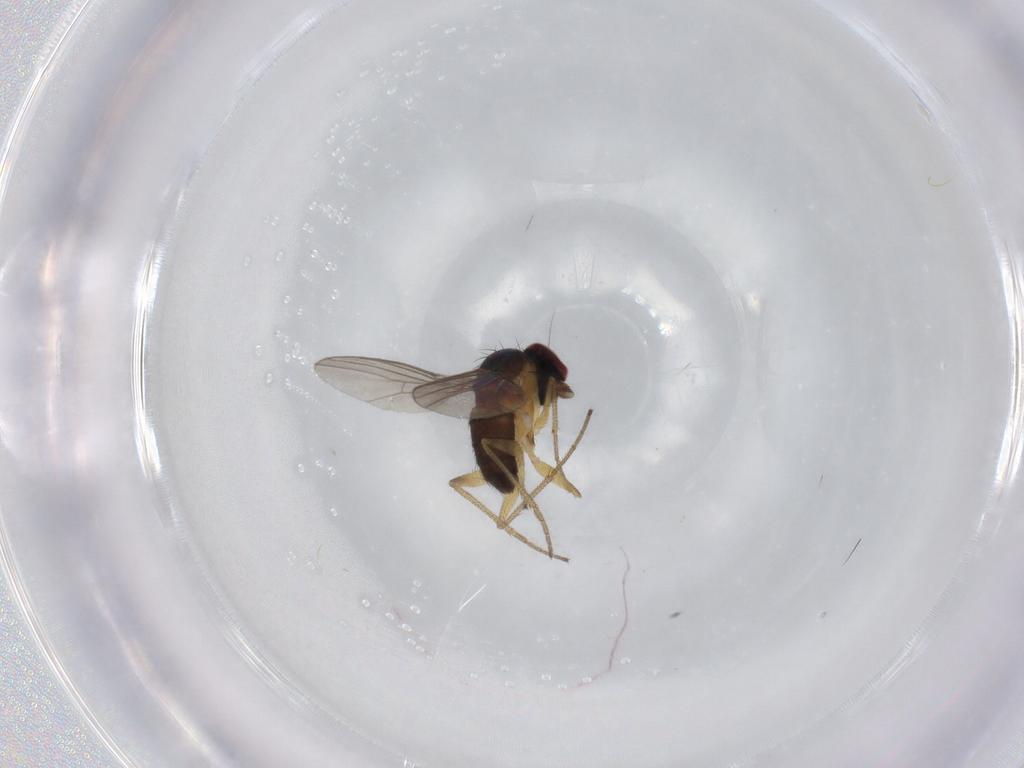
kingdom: Animalia
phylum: Arthropoda
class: Insecta
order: Diptera
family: Dolichopodidae
